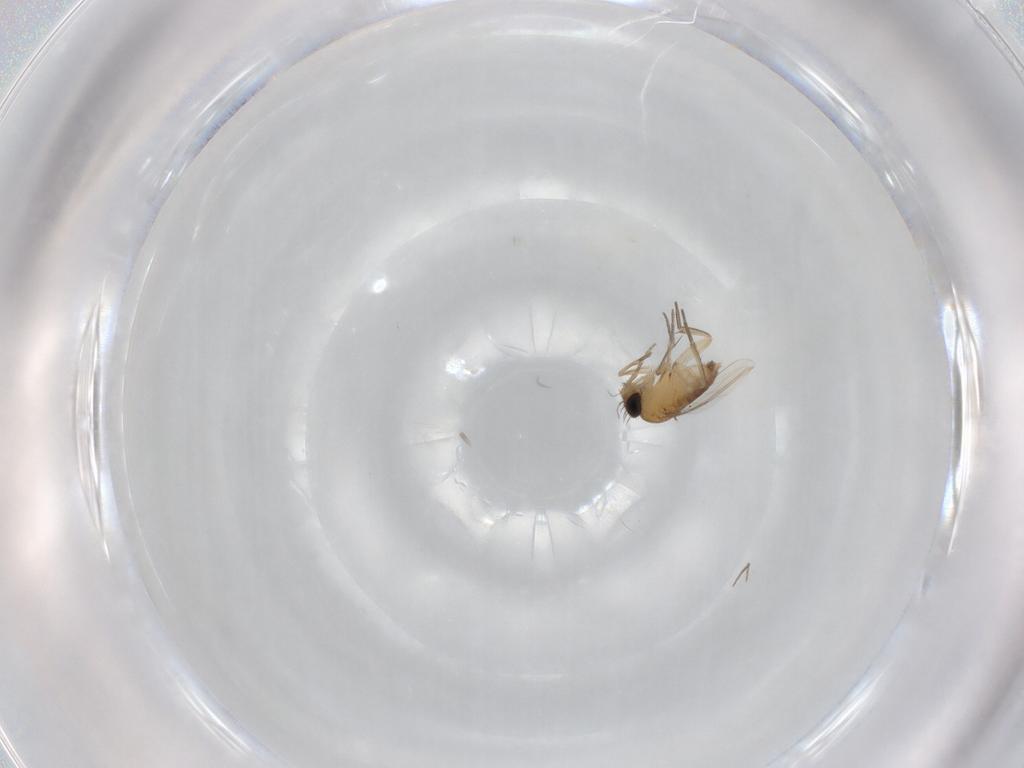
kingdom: Animalia
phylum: Arthropoda
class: Insecta
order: Diptera
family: Phoridae
